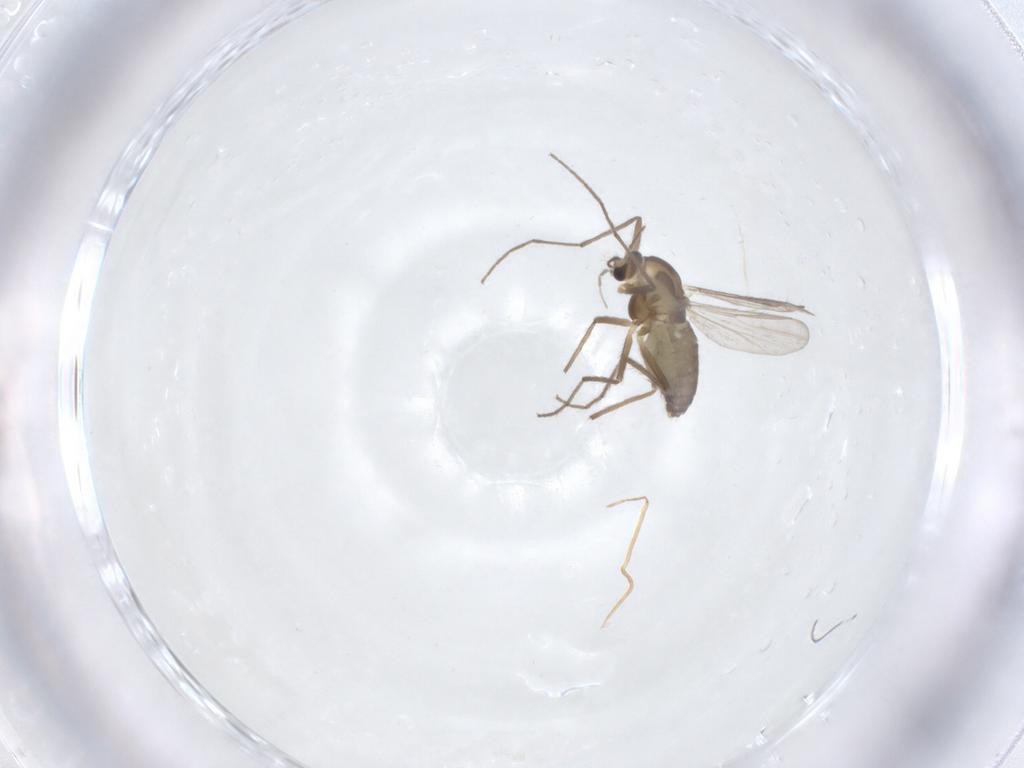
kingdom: Animalia
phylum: Arthropoda
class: Insecta
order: Diptera
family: Chironomidae
